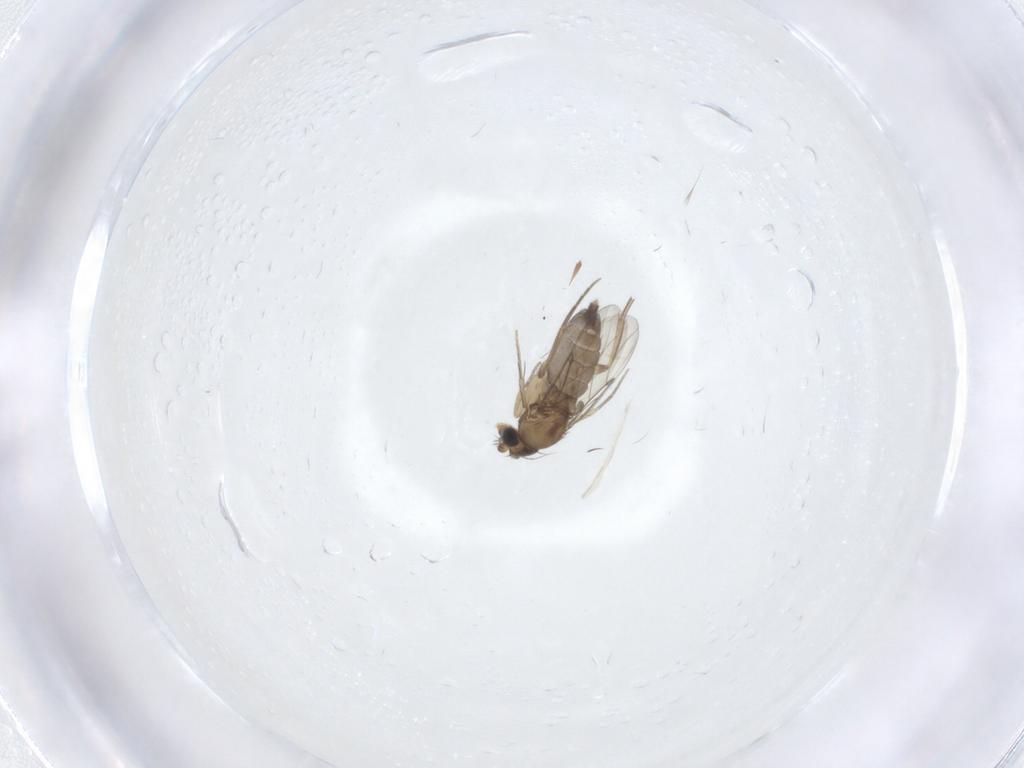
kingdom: Animalia
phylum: Arthropoda
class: Insecta
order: Diptera
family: Phoridae
